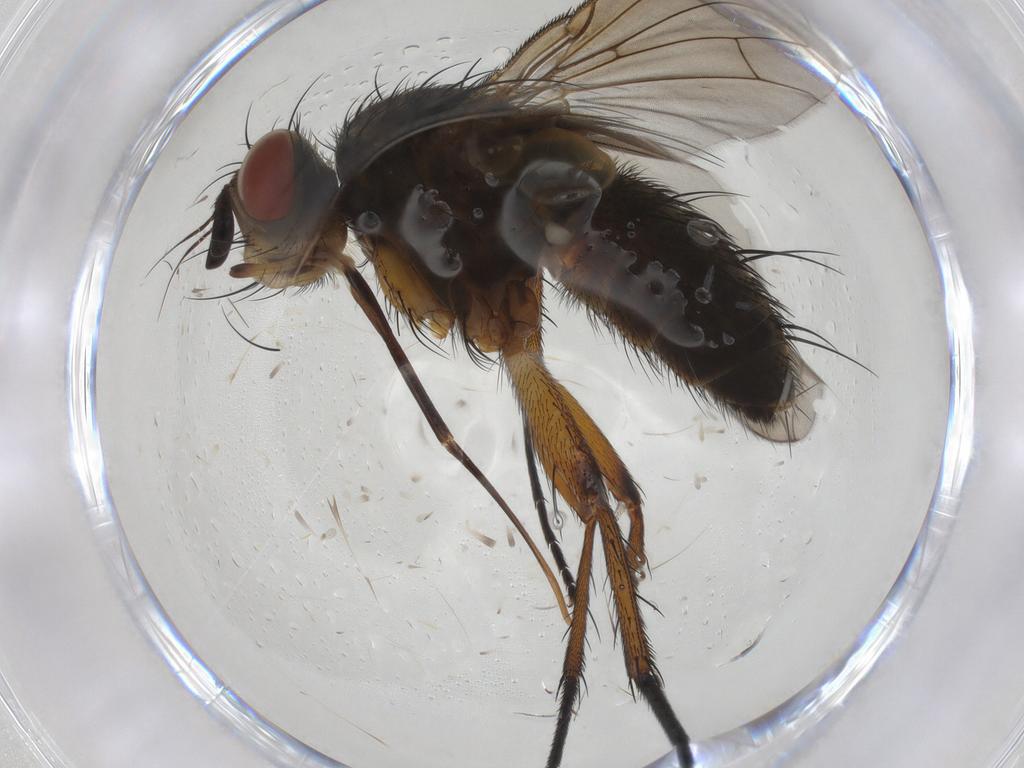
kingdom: Animalia
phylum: Arthropoda
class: Insecta
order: Diptera
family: Tachinidae
